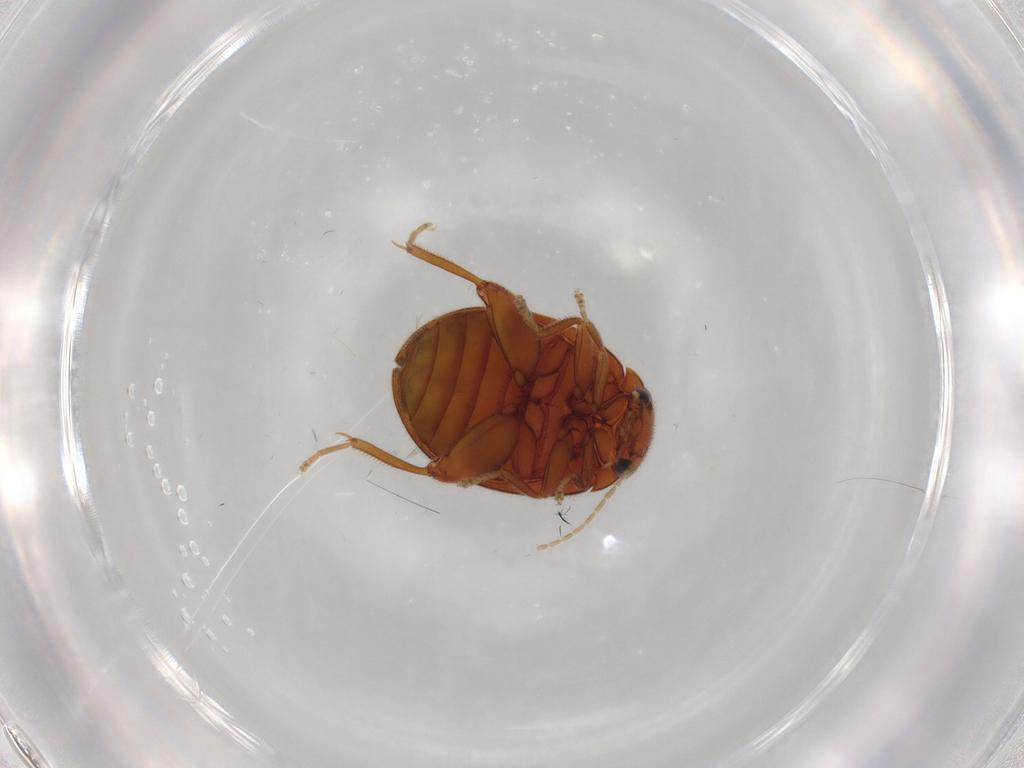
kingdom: Animalia
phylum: Arthropoda
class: Insecta
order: Coleoptera
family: Scirtidae
